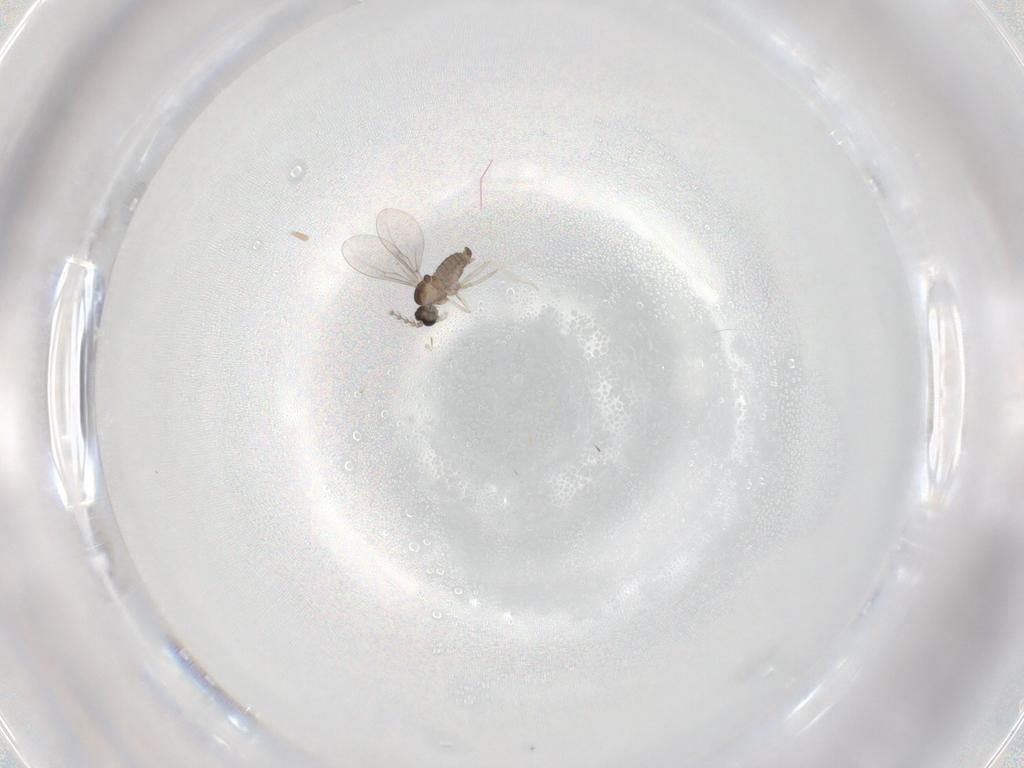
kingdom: Animalia
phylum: Arthropoda
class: Insecta
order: Diptera
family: Cecidomyiidae
